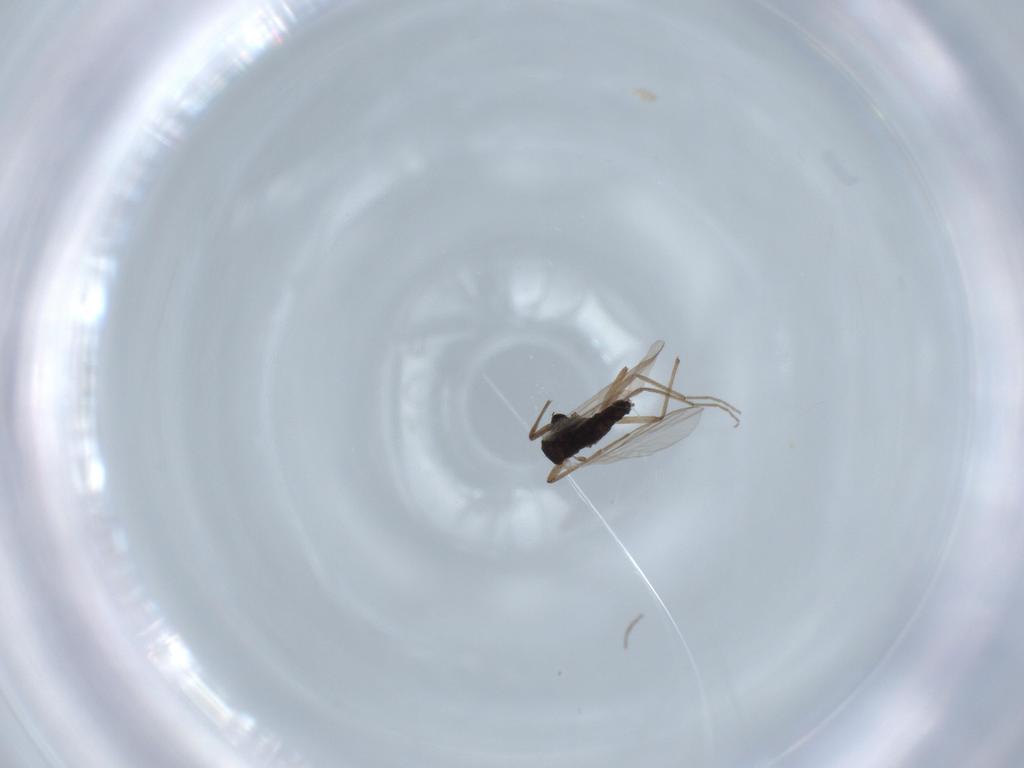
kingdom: Animalia
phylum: Arthropoda
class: Insecta
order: Diptera
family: Chironomidae
